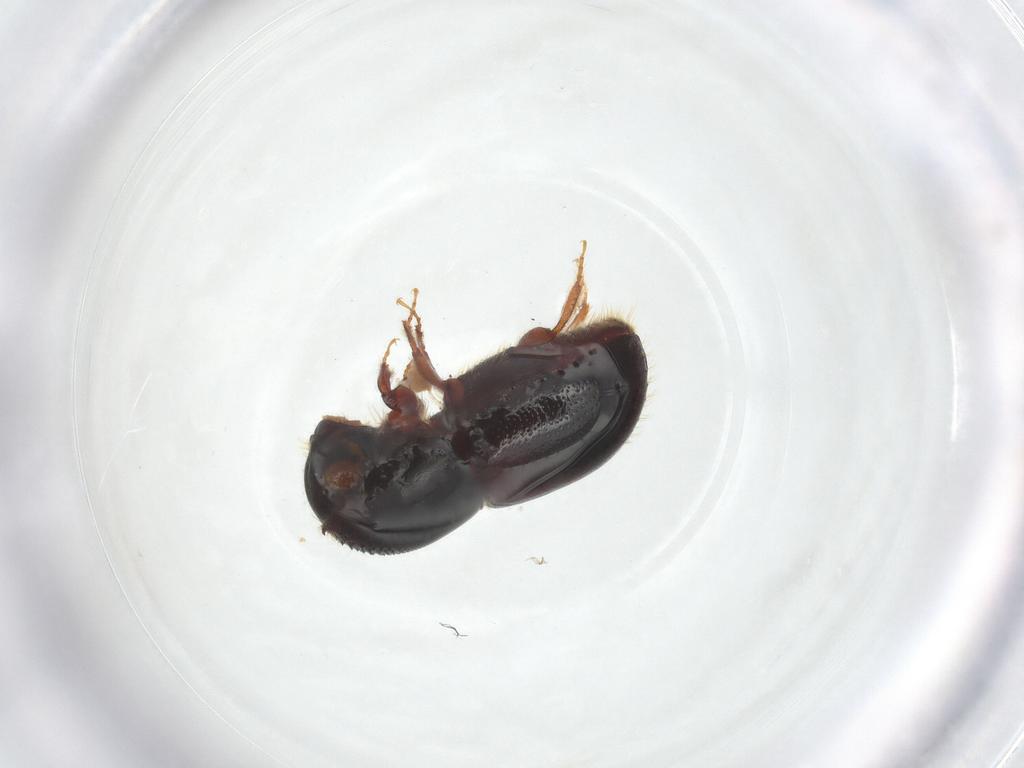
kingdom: Animalia
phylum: Arthropoda
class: Insecta
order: Coleoptera
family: Curculionidae
